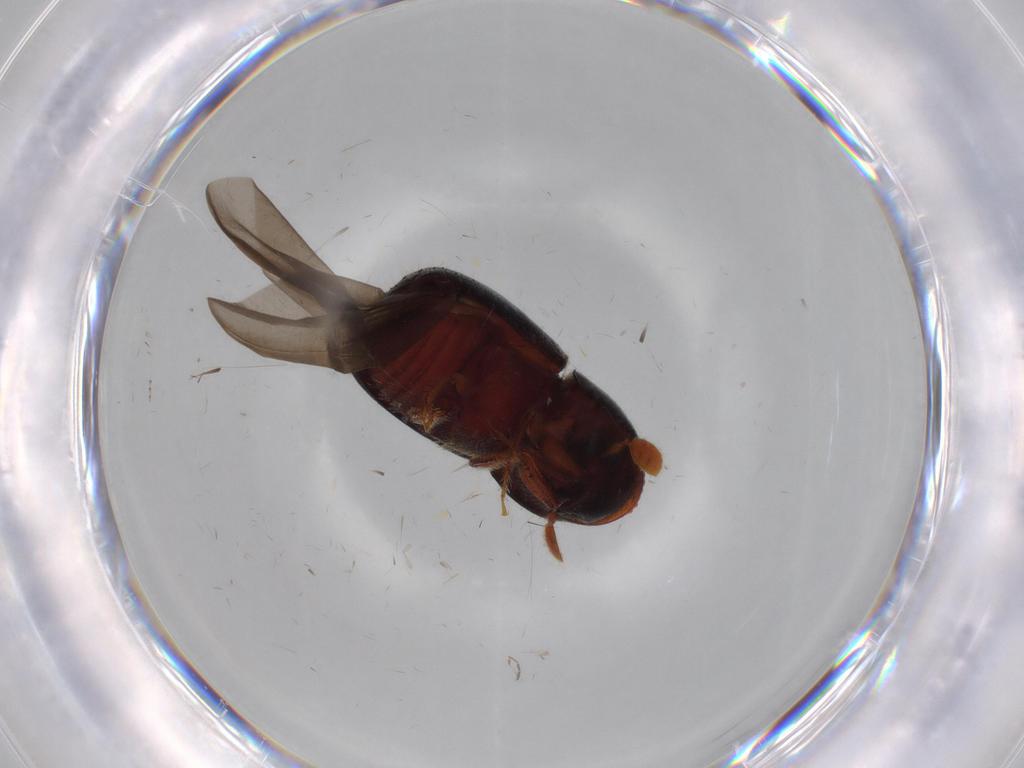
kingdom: Animalia
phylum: Arthropoda
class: Insecta
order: Coleoptera
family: Curculionidae
